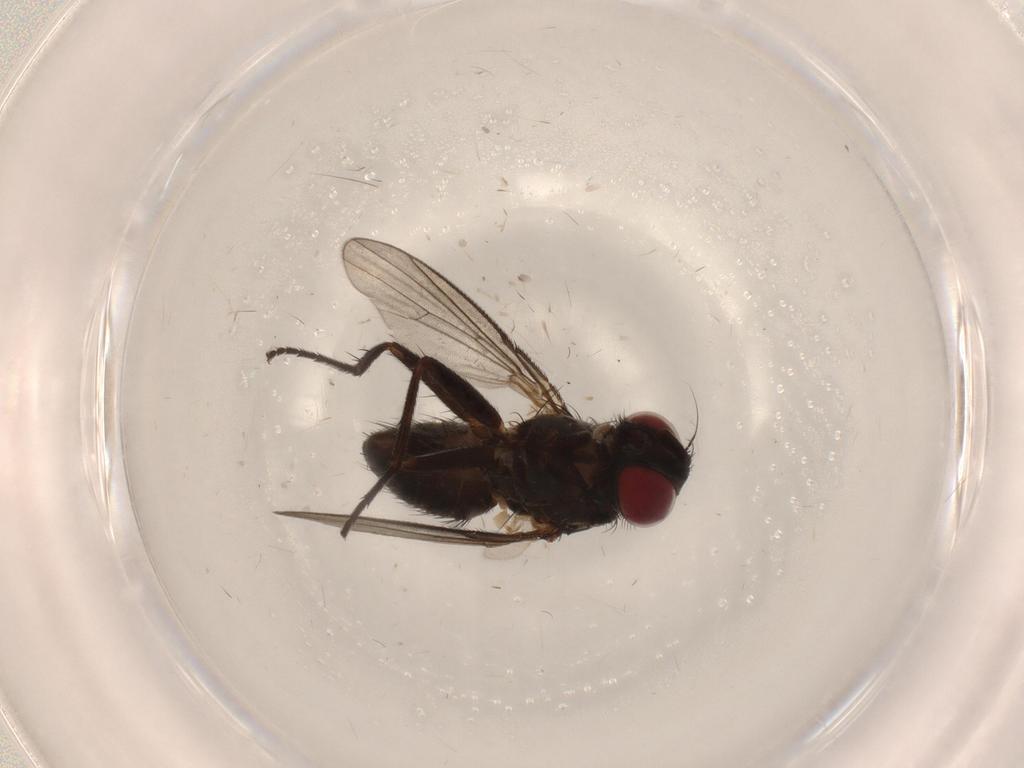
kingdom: Animalia
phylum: Arthropoda
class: Insecta
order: Diptera
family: Muscidae
